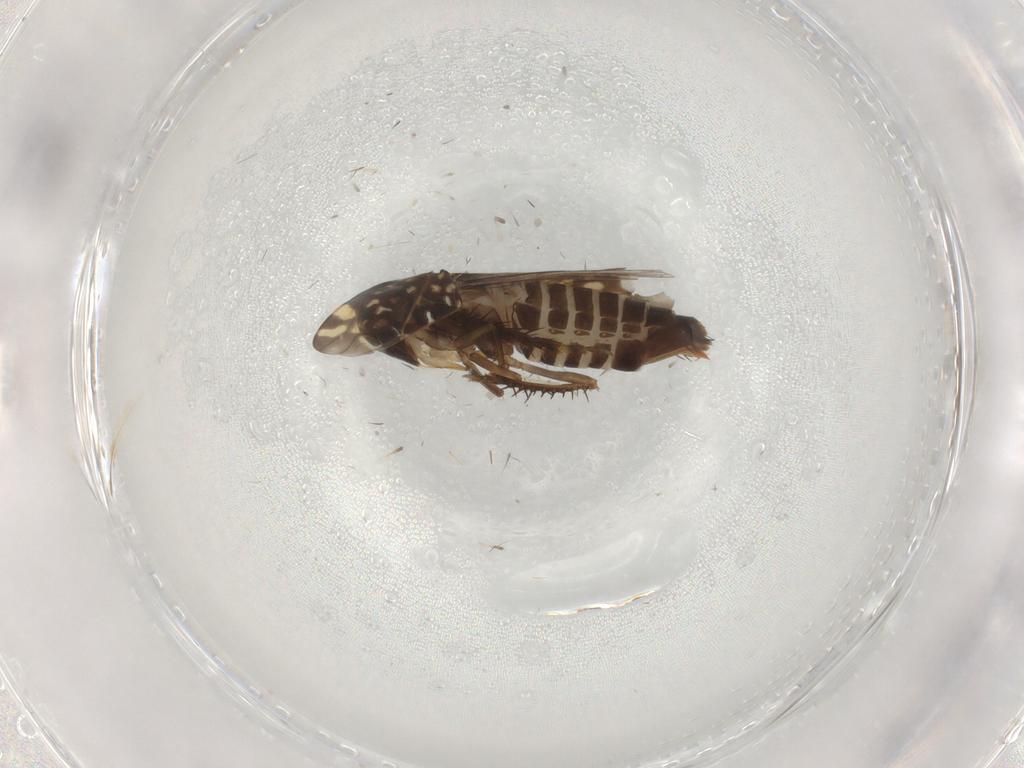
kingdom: Animalia
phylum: Arthropoda
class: Insecta
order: Hemiptera
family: Cicadellidae
